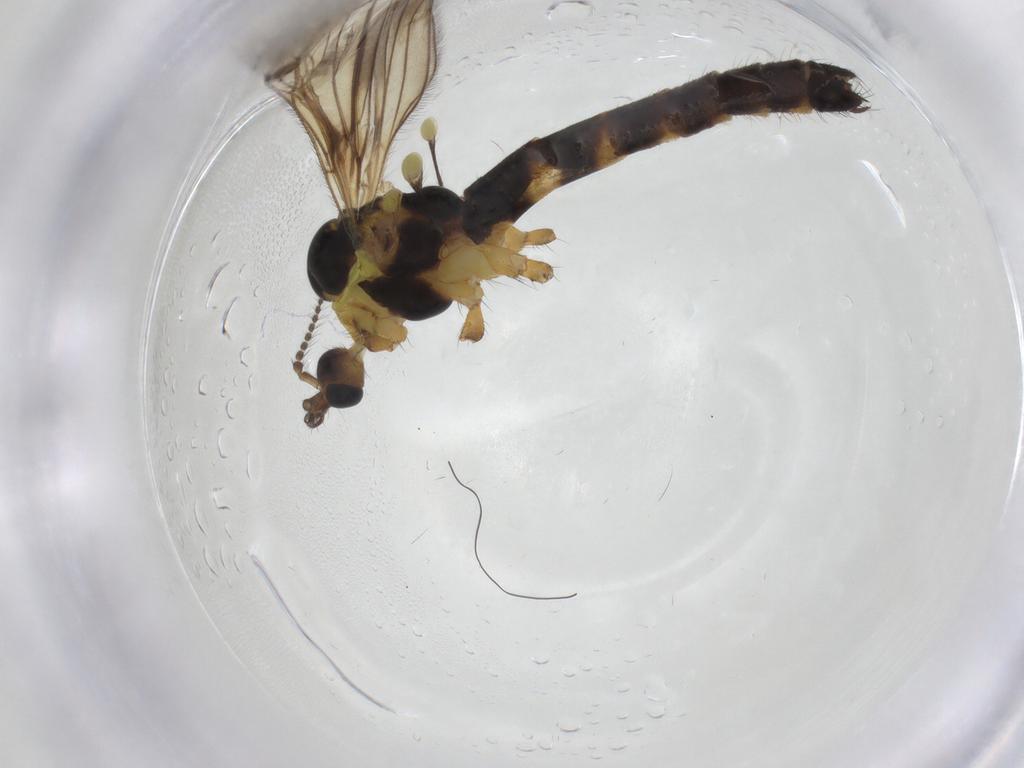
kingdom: Animalia
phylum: Arthropoda
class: Insecta
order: Diptera
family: Limoniidae
